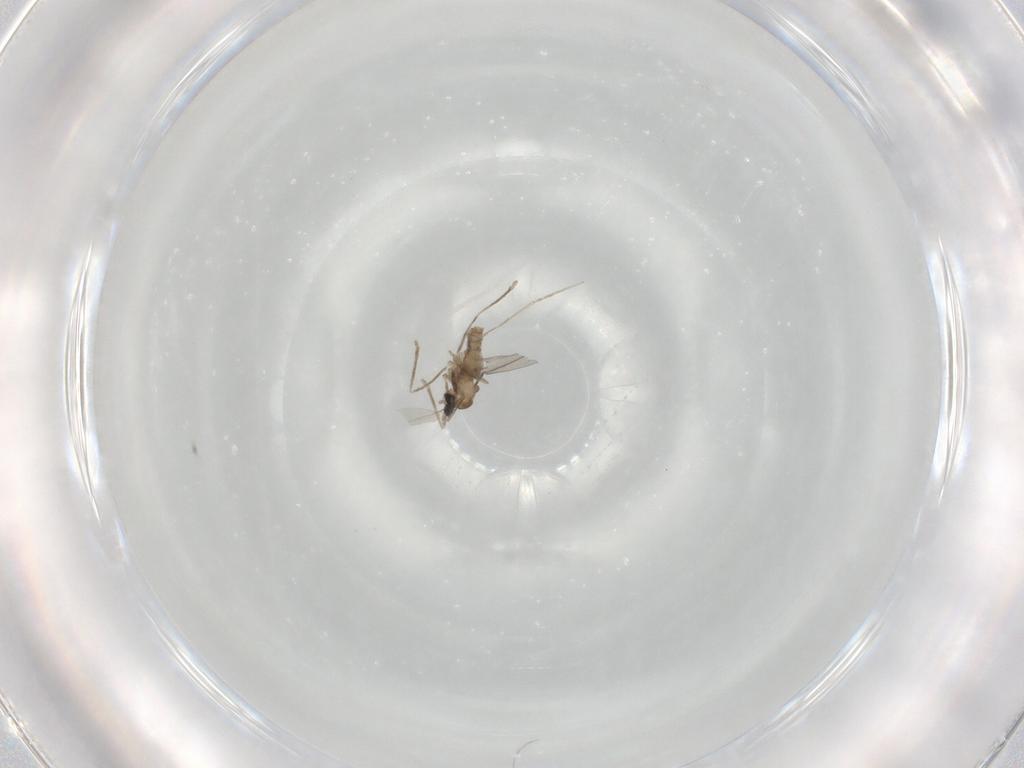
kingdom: Animalia
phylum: Arthropoda
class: Insecta
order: Diptera
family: Cecidomyiidae
